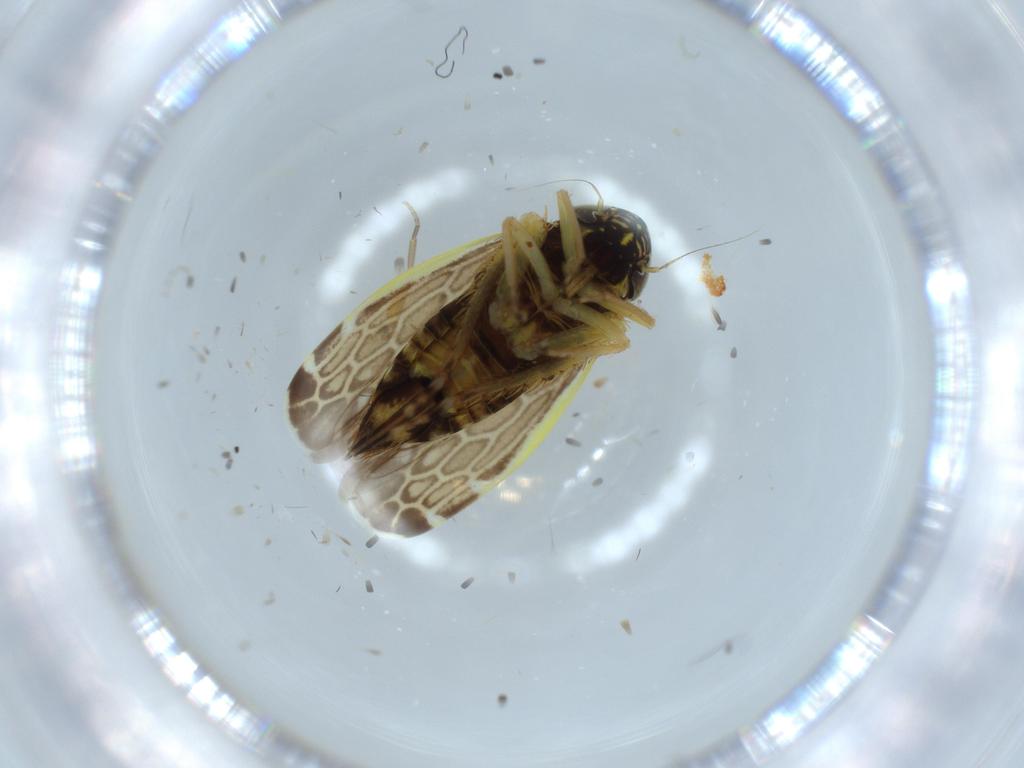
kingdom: Animalia
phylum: Arthropoda
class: Insecta
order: Hemiptera
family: Cicadellidae
